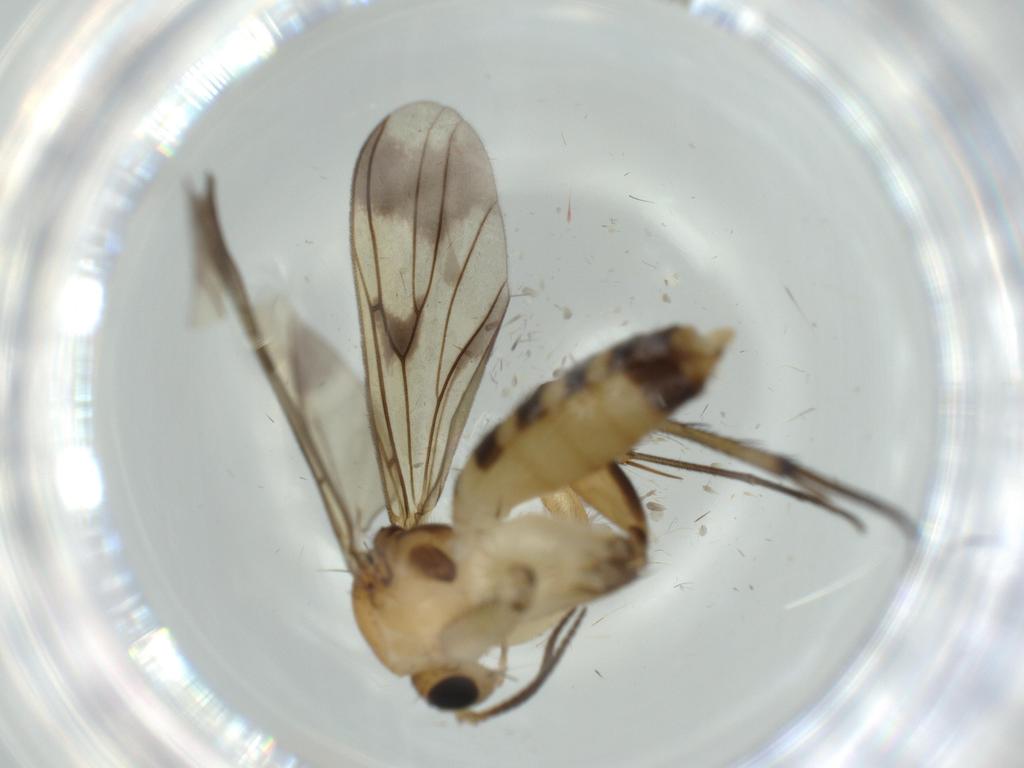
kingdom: Animalia
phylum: Arthropoda
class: Insecta
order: Diptera
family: Mycetophilidae
